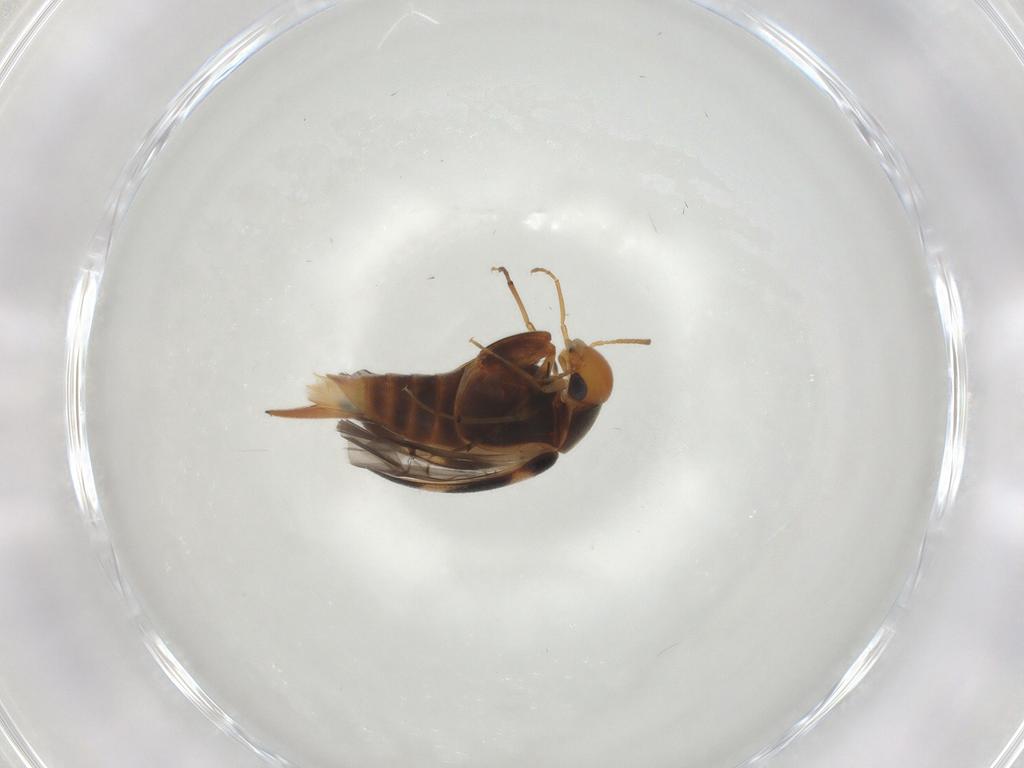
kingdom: Animalia
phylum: Arthropoda
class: Insecta
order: Coleoptera
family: Mordellidae
